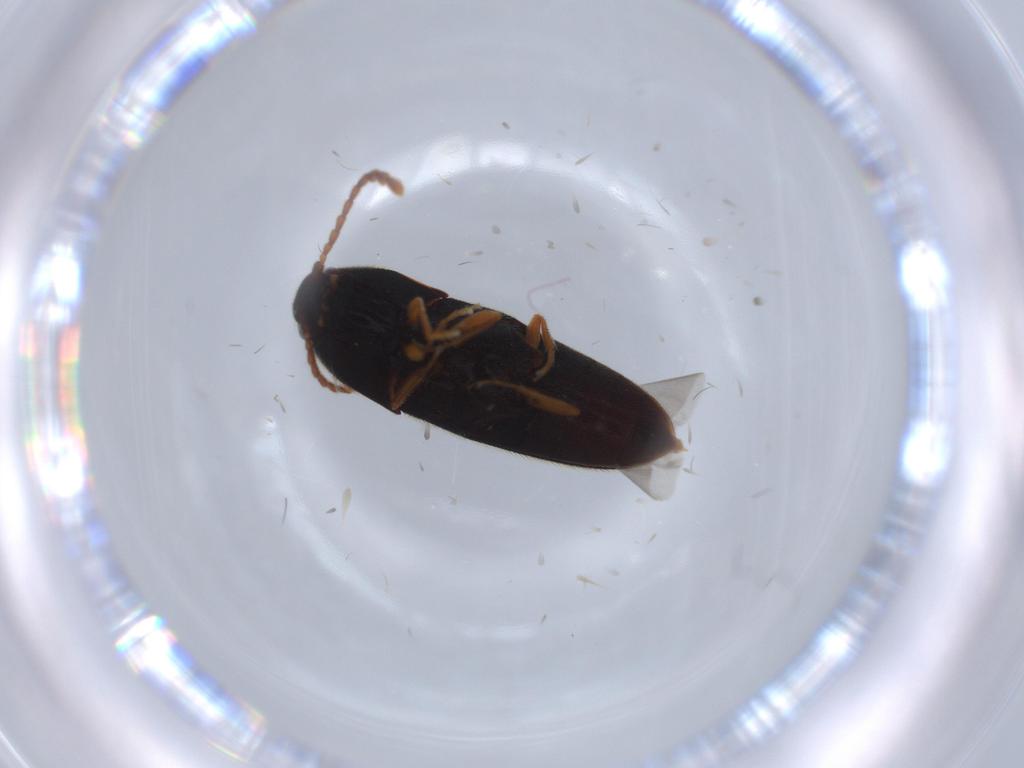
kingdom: Animalia
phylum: Arthropoda
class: Insecta
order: Coleoptera
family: Elateridae
